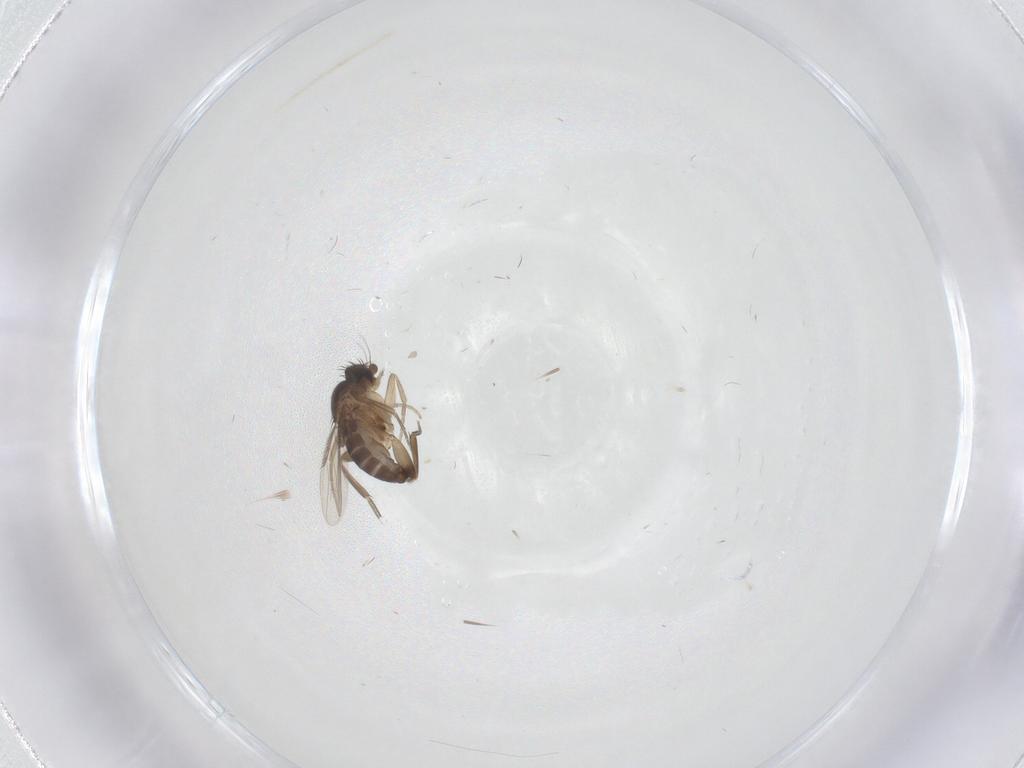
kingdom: Animalia
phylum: Arthropoda
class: Insecta
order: Diptera
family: Phoridae
